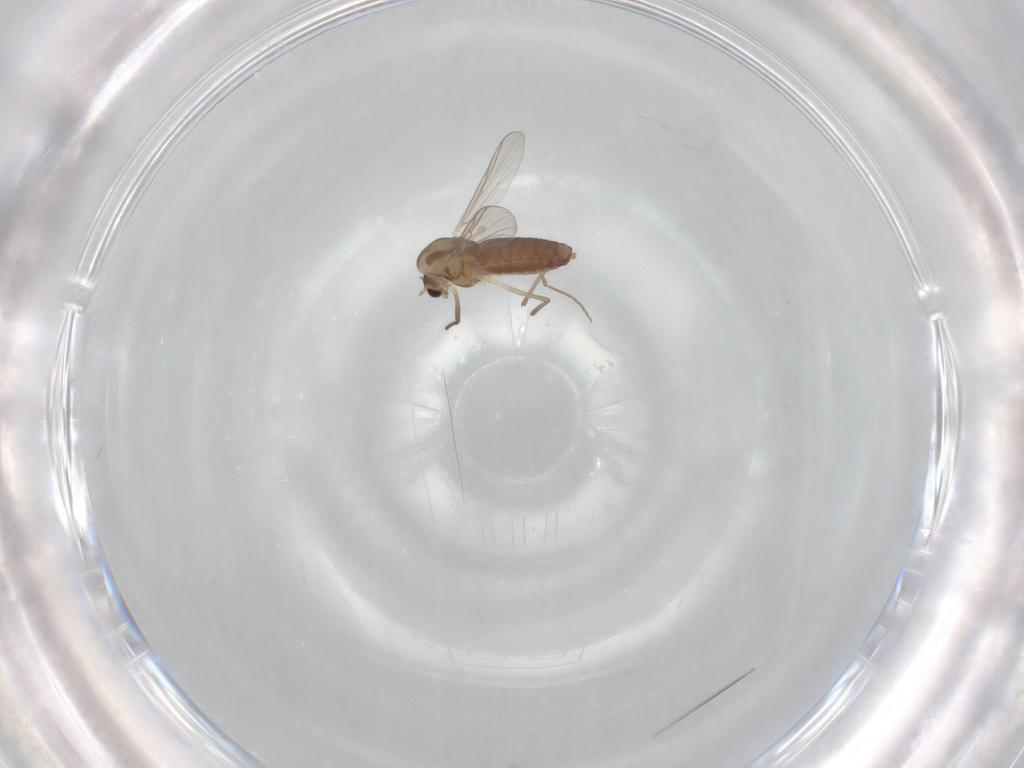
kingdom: Animalia
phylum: Arthropoda
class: Insecta
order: Diptera
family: Chironomidae
